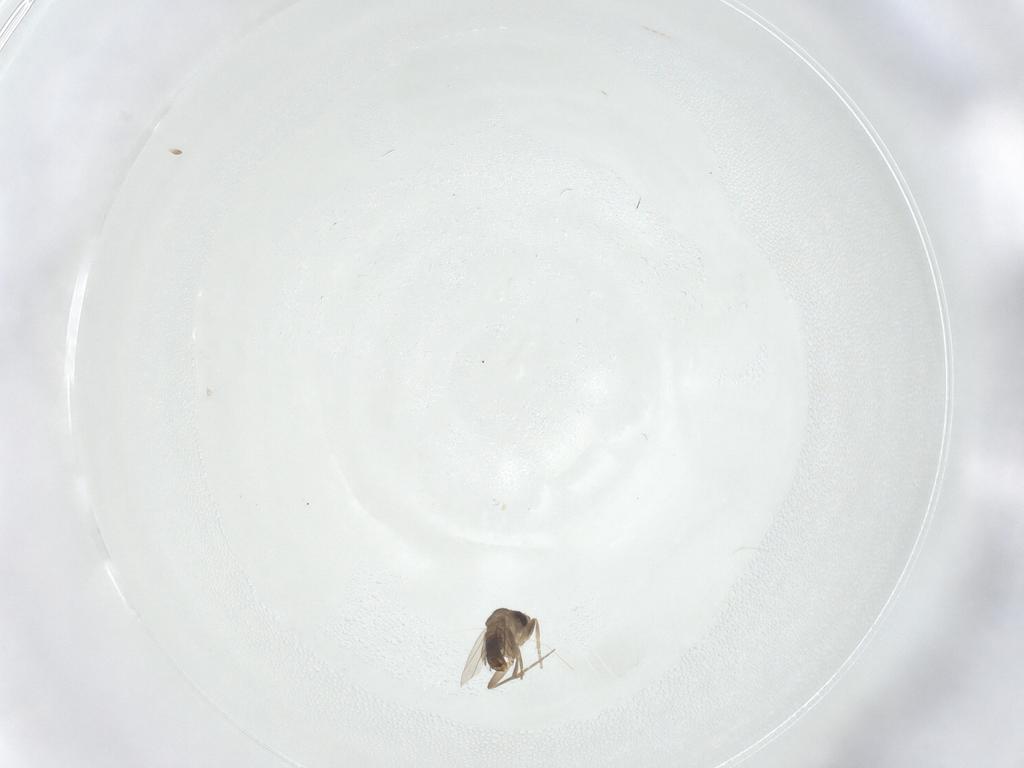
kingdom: Animalia
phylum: Arthropoda
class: Insecta
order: Diptera
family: Phoridae
